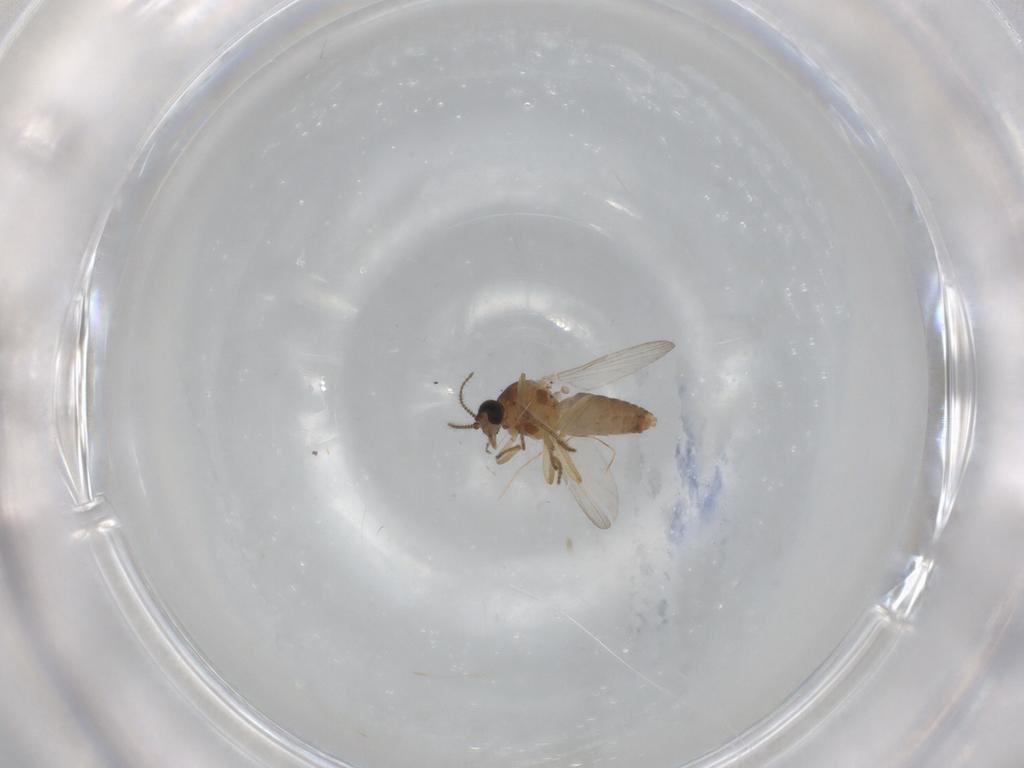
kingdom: Animalia
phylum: Arthropoda
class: Insecta
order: Diptera
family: Ceratopogonidae
